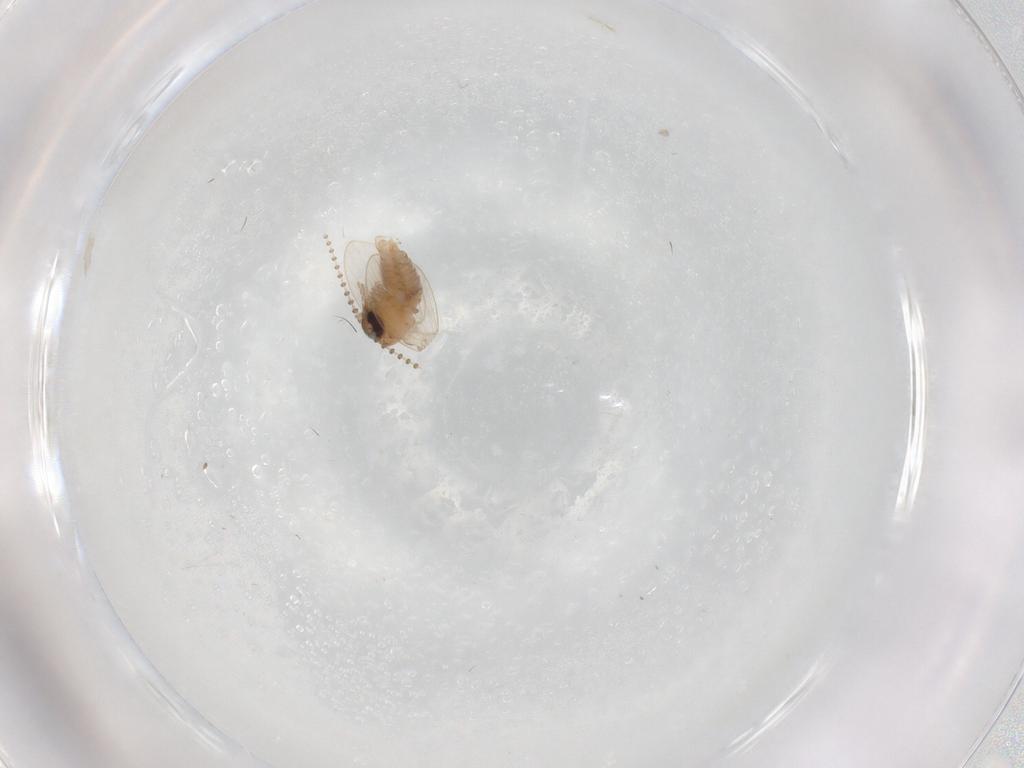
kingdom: Animalia
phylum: Arthropoda
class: Insecta
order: Diptera
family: Psychodidae
